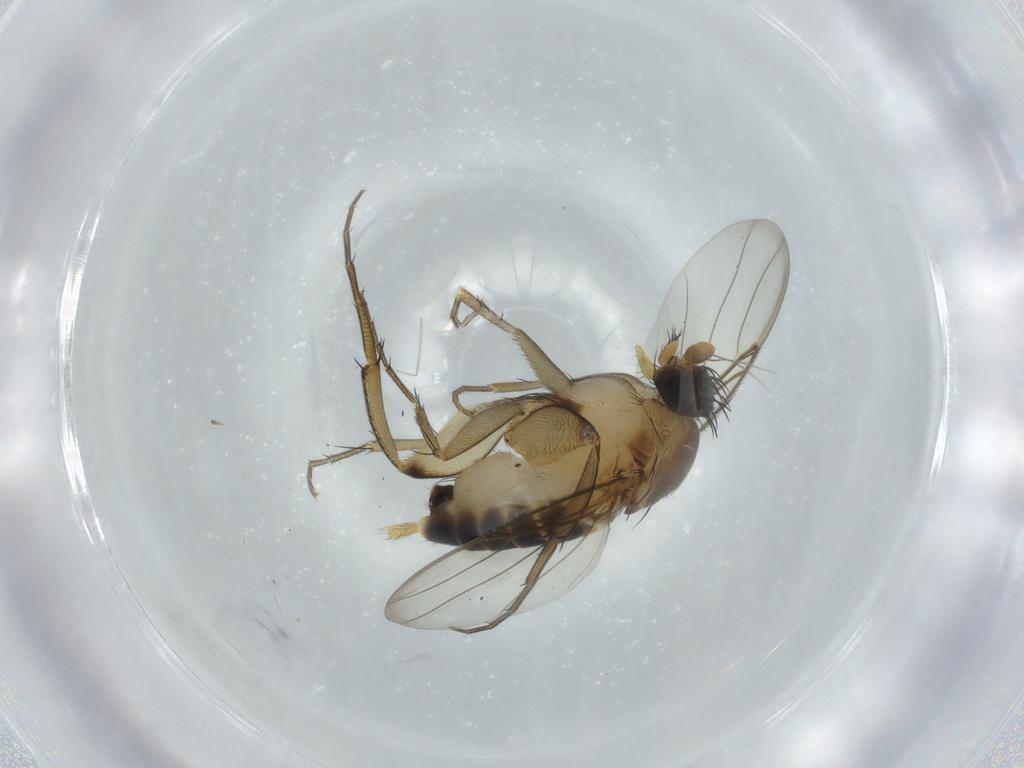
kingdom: Animalia
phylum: Arthropoda
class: Insecta
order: Diptera
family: Phoridae
